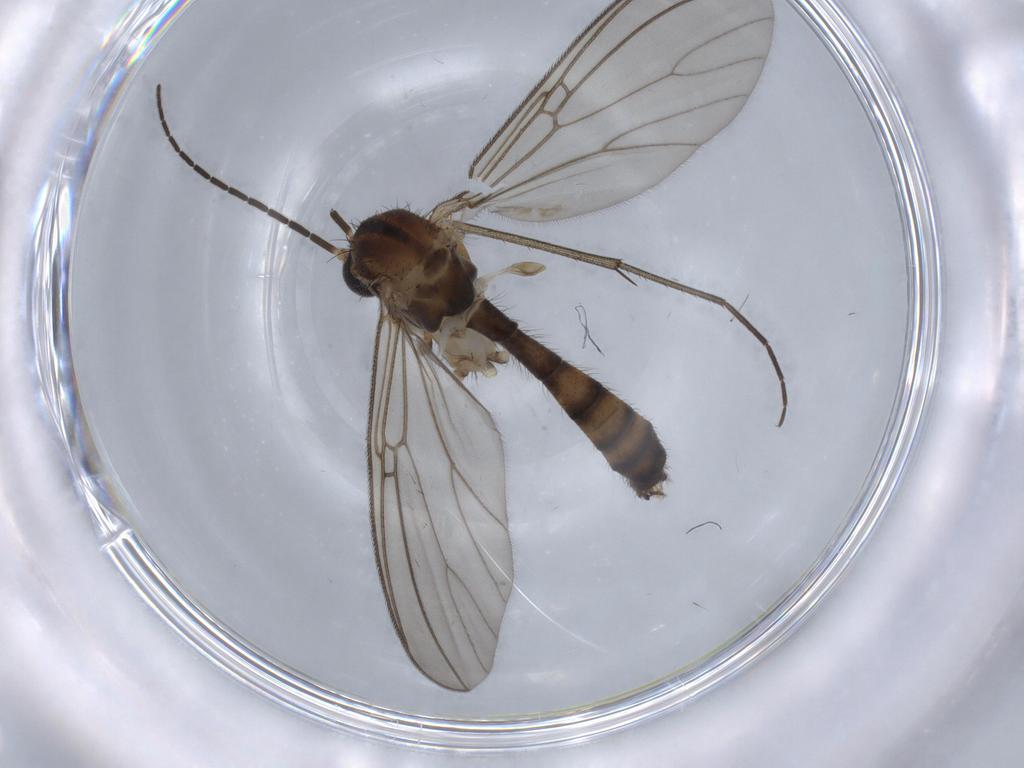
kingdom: Animalia
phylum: Arthropoda
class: Insecta
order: Diptera
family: Mycetophilidae
